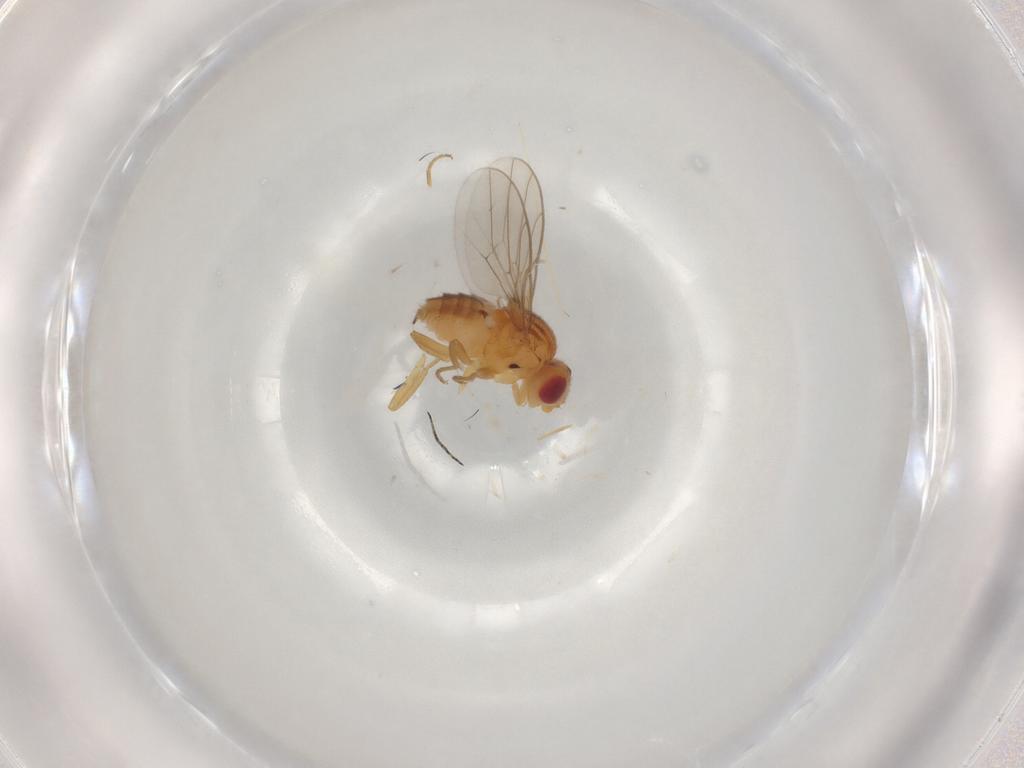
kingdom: Animalia
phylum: Arthropoda
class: Insecta
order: Diptera
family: Chloropidae
